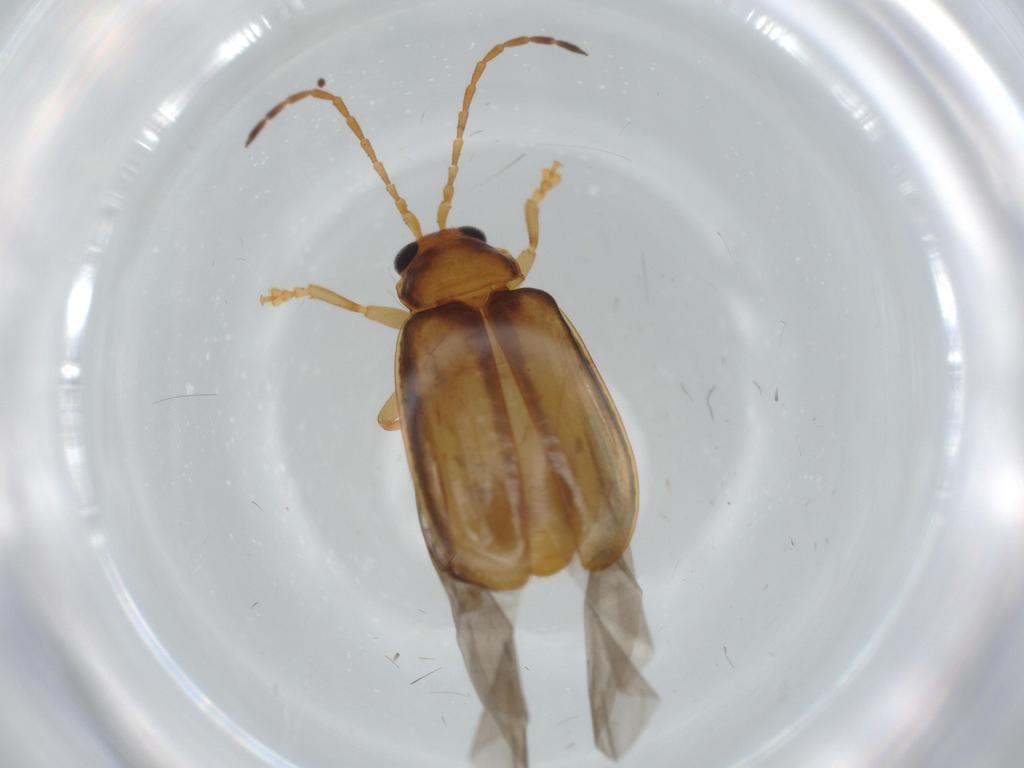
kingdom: Animalia
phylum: Arthropoda
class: Insecta
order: Coleoptera
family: Chrysomelidae
